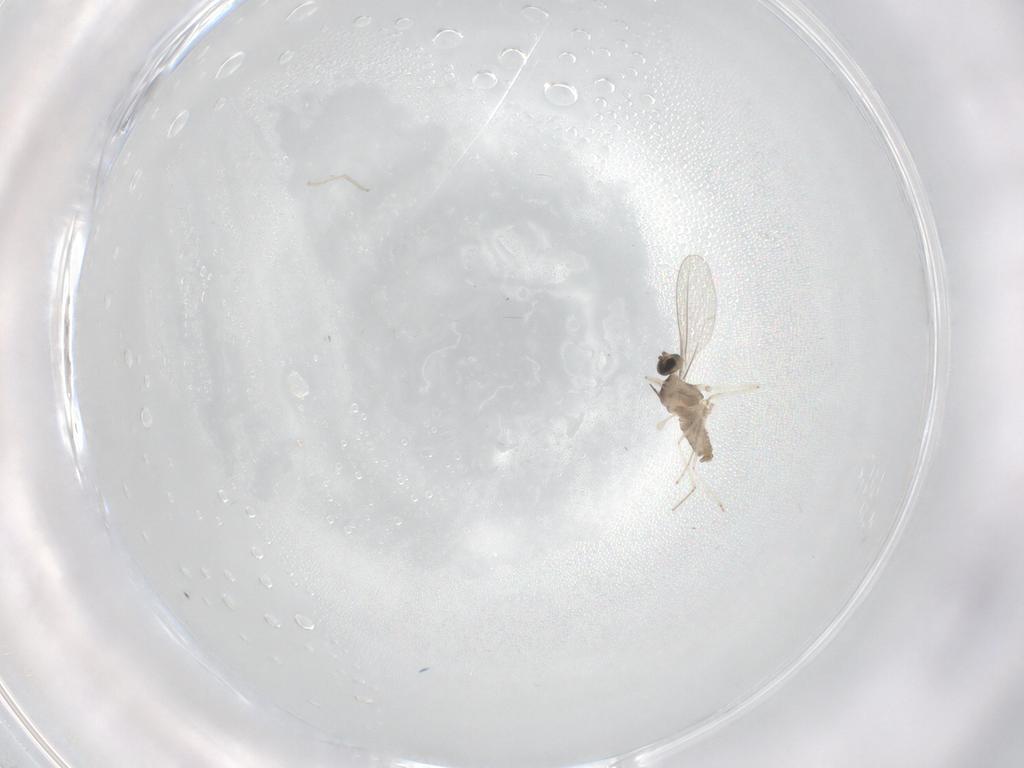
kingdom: Animalia
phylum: Arthropoda
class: Insecta
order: Diptera
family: Cecidomyiidae
